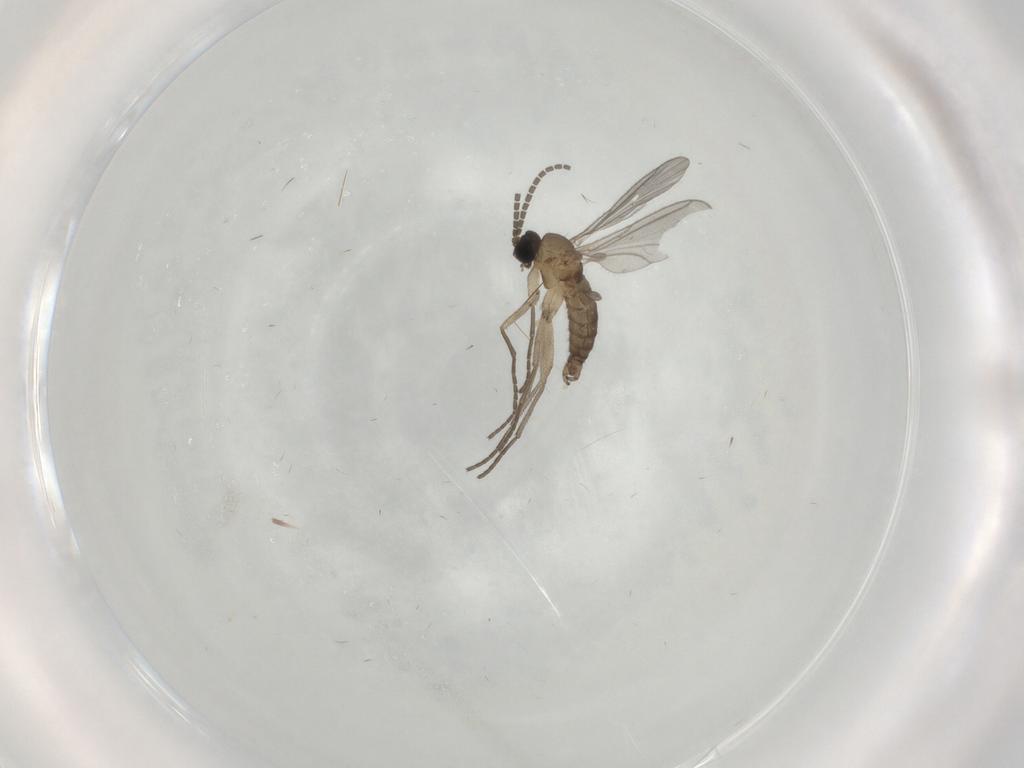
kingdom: Animalia
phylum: Arthropoda
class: Insecta
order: Diptera
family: Sciaridae
